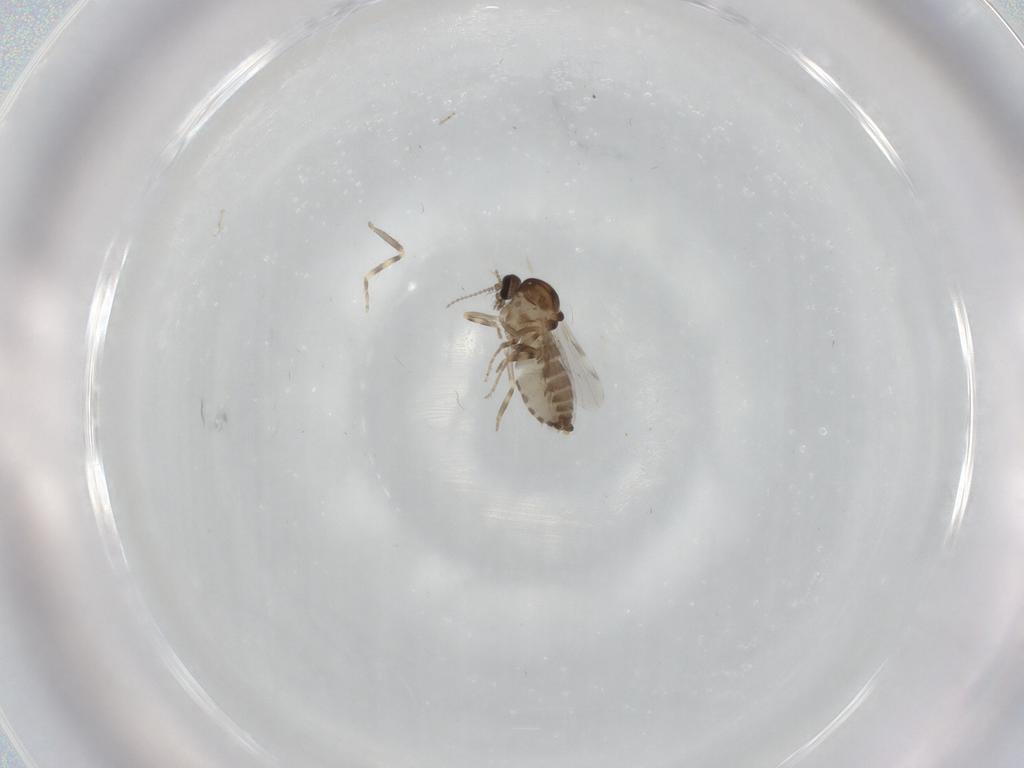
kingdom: Animalia
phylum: Arthropoda
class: Insecta
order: Diptera
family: Ceratopogonidae
